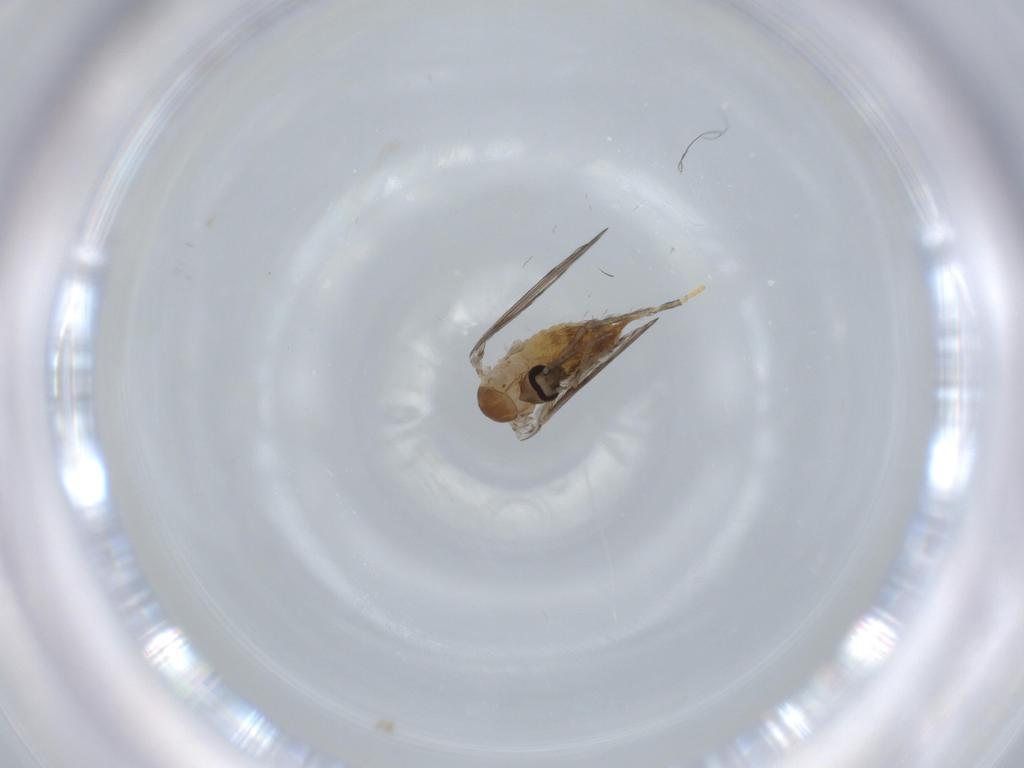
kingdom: Animalia
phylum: Arthropoda
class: Insecta
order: Diptera
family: Psychodidae
